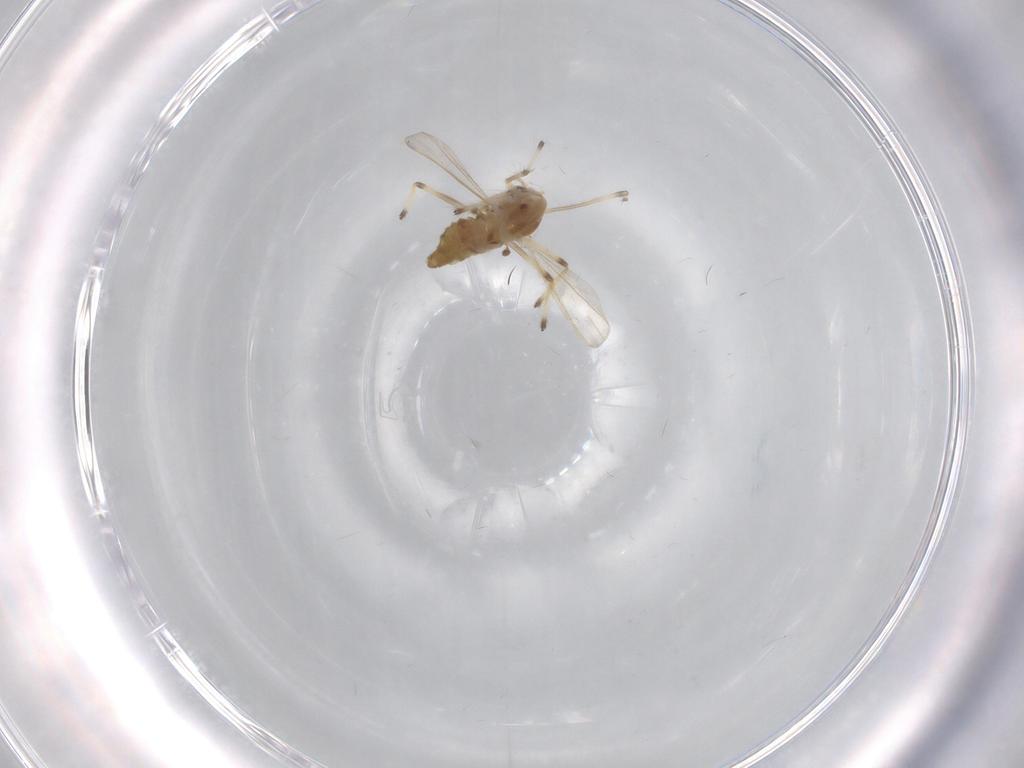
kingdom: Animalia
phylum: Arthropoda
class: Insecta
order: Diptera
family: Chironomidae
